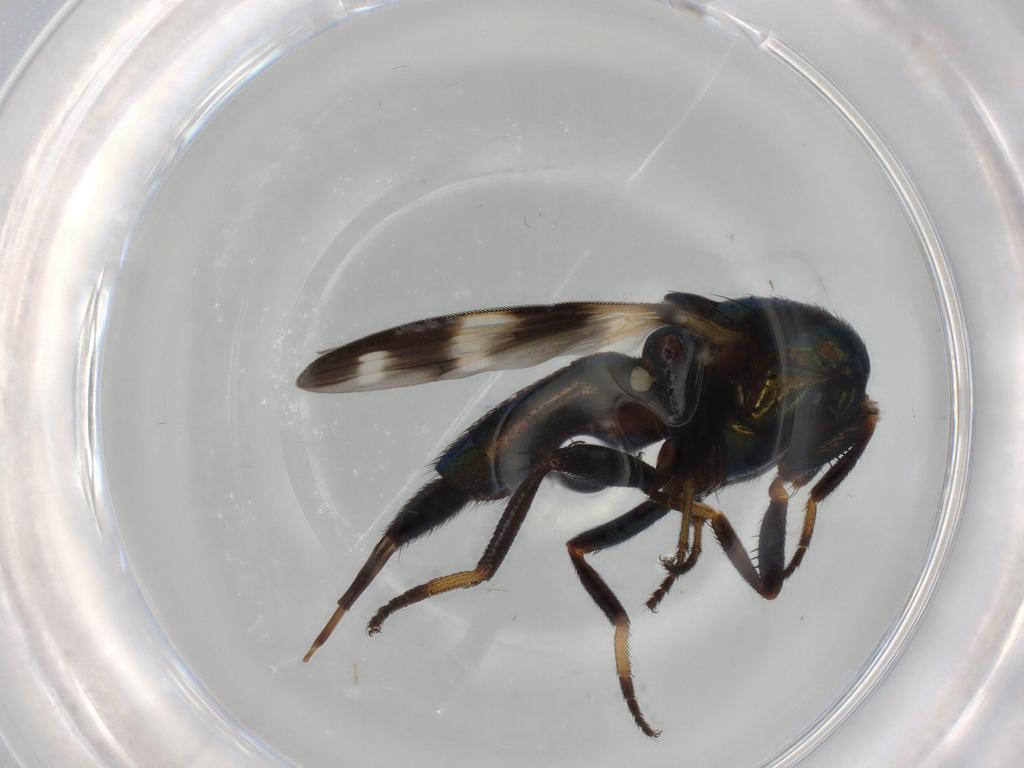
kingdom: Animalia
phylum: Arthropoda
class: Insecta
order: Diptera
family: Ulidiidae
